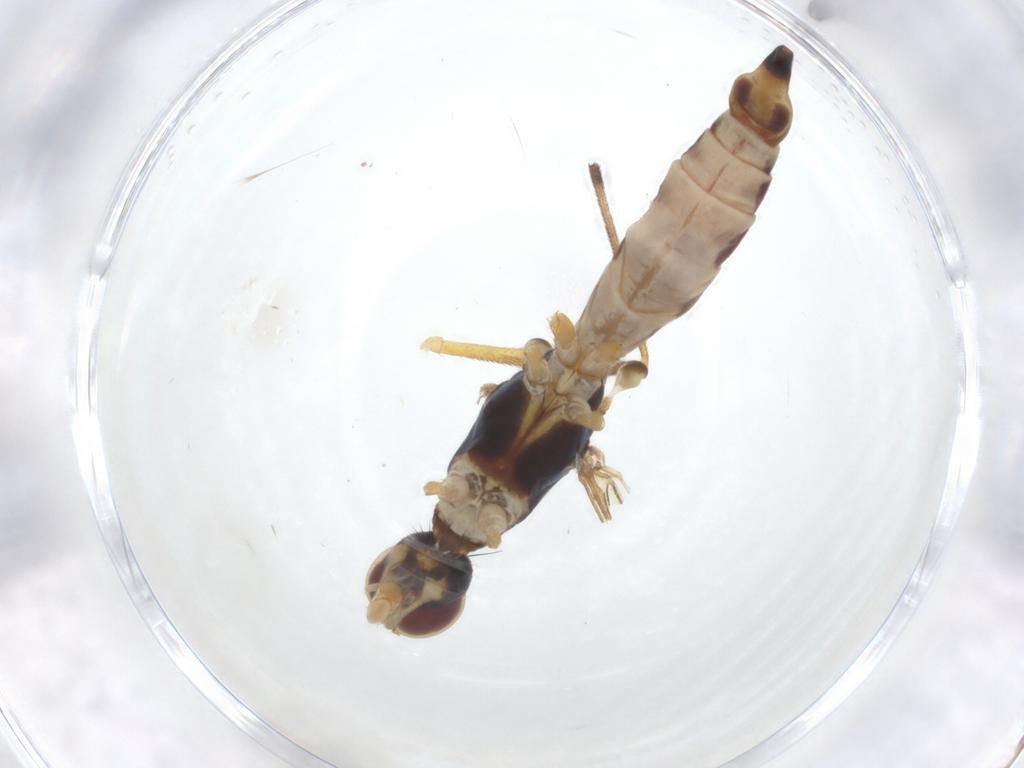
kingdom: Animalia
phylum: Arthropoda
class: Insecta
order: Diptera
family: Micropezidae
